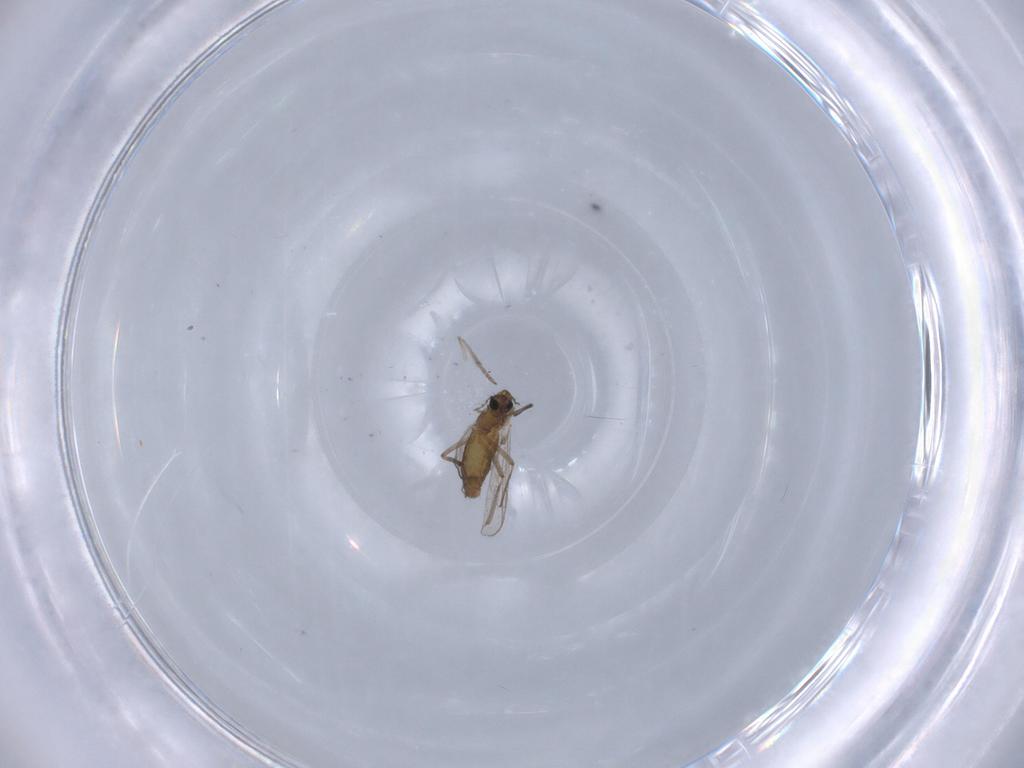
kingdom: Animalia
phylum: Arthropoda
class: Insecta
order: Diptera
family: Chironomidae
